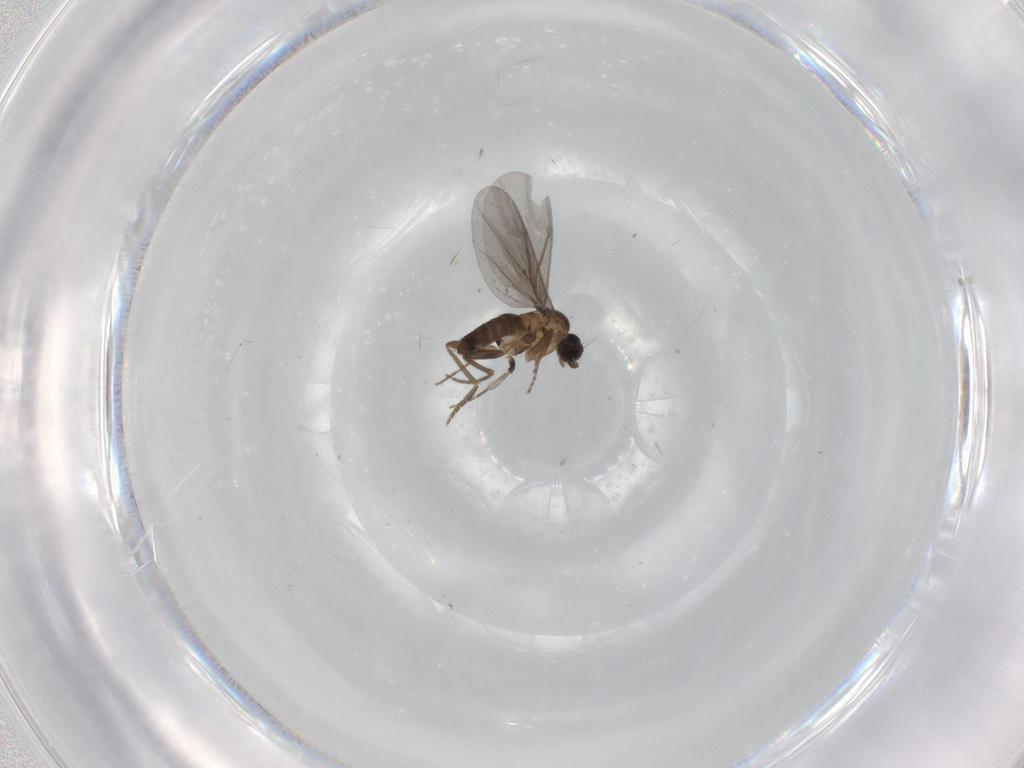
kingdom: Animalia
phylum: Arthropoda
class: Insecta
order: Diptera
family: Phoridae
